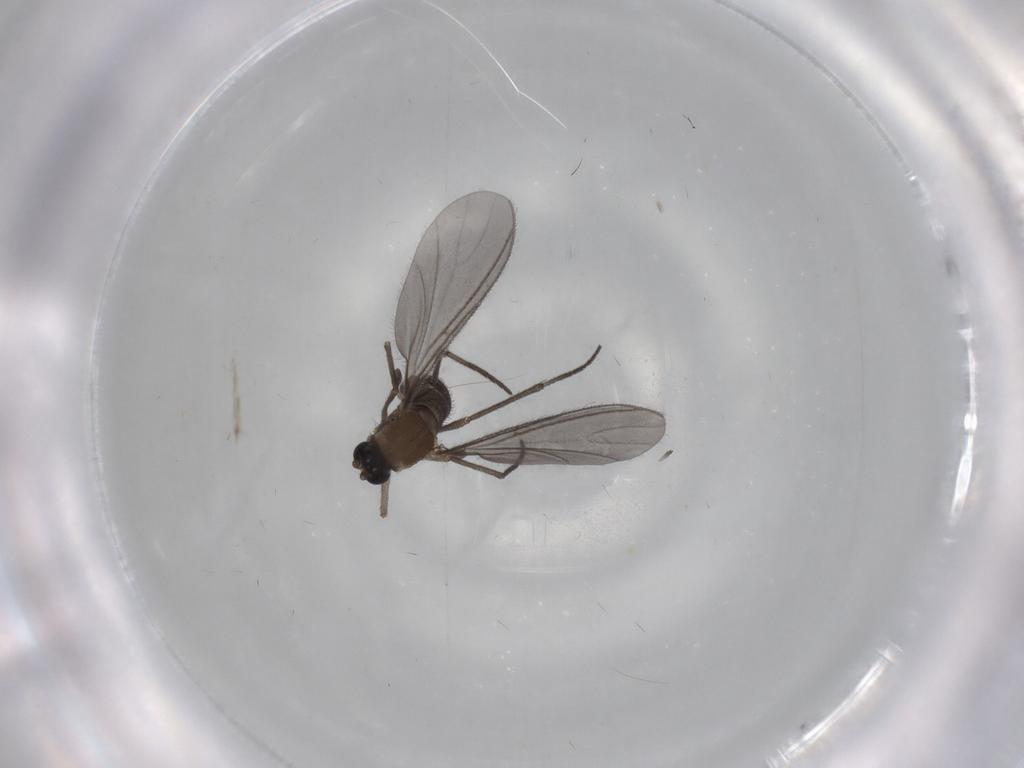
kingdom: Animalia
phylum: Arthropoda
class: Insecta
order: Diptera
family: Sciaridae
